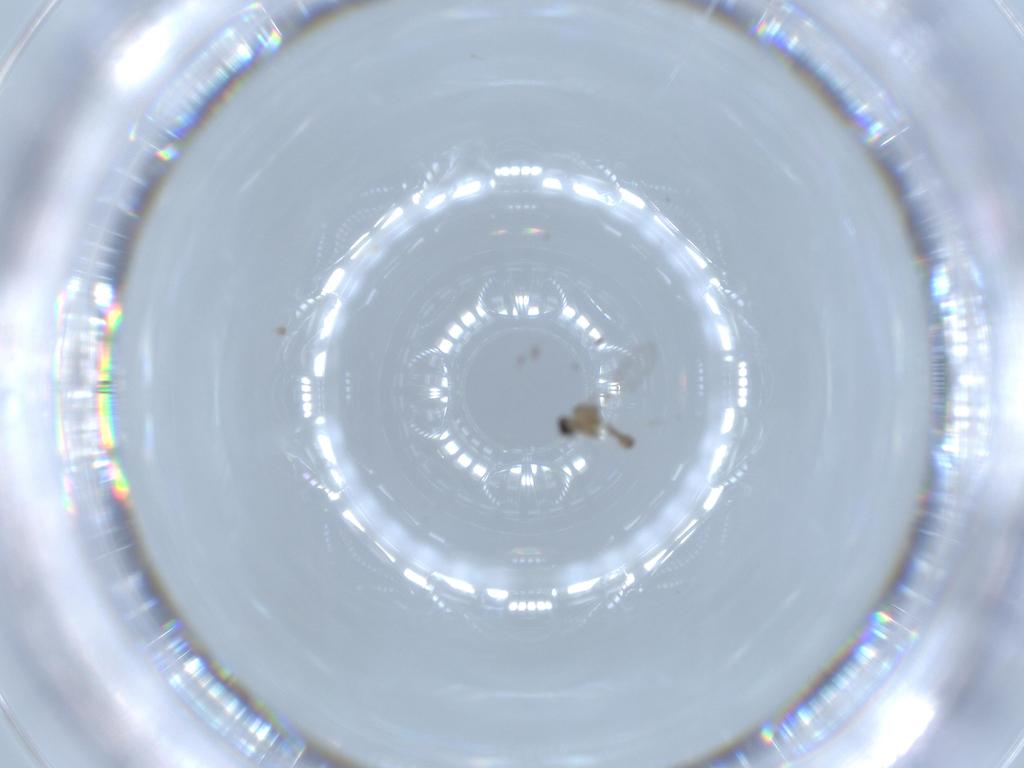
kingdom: Animalia
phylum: Arthropoda
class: Insecta
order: Diptera
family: Cecidomyiidae
